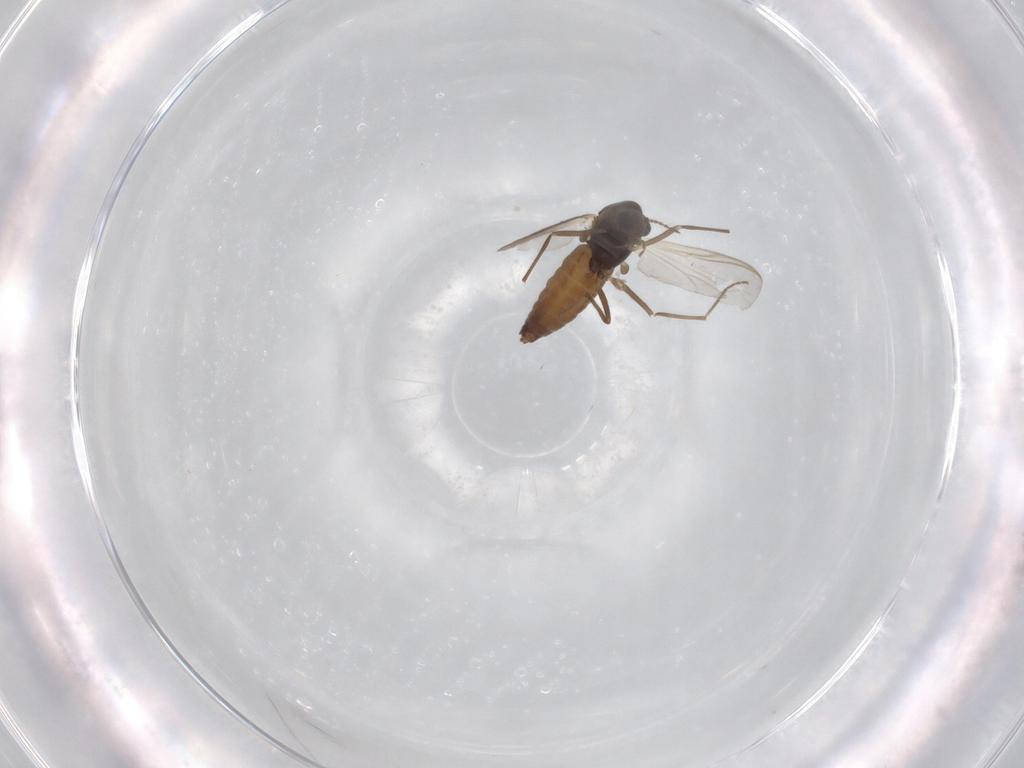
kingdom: Animalia
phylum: Arthropoda
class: Insecta
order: Diptera
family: Chironomidae
